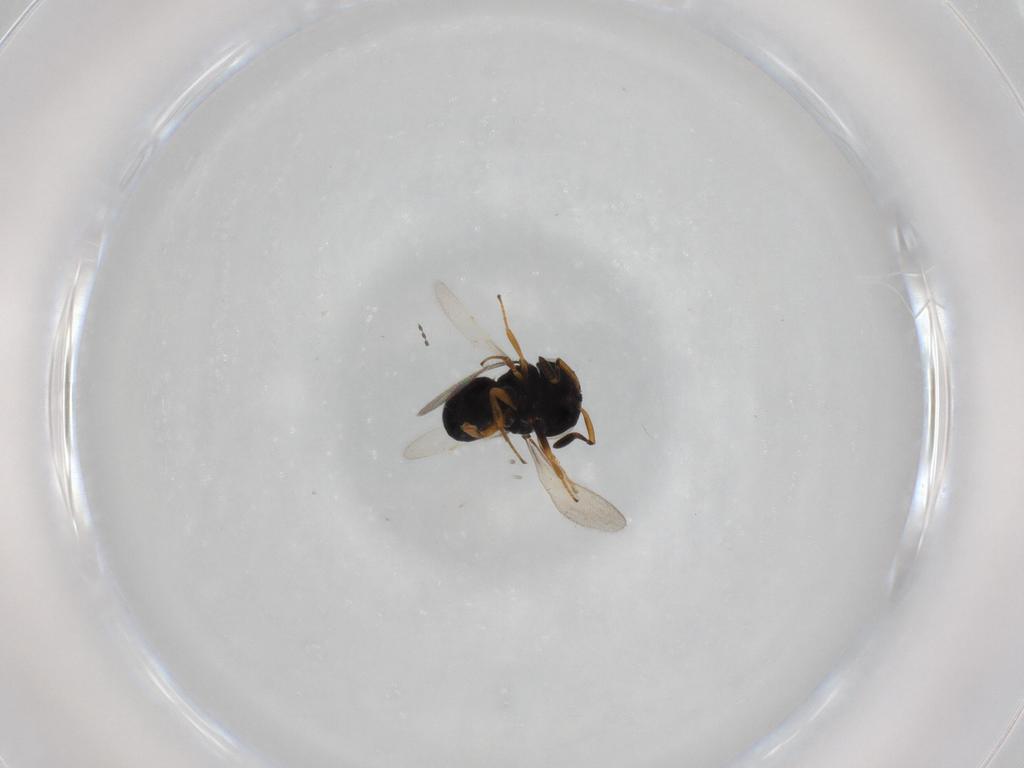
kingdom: Animalia
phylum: Arthropoda
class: Insecta
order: Hymenoptera
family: Scelionidae
